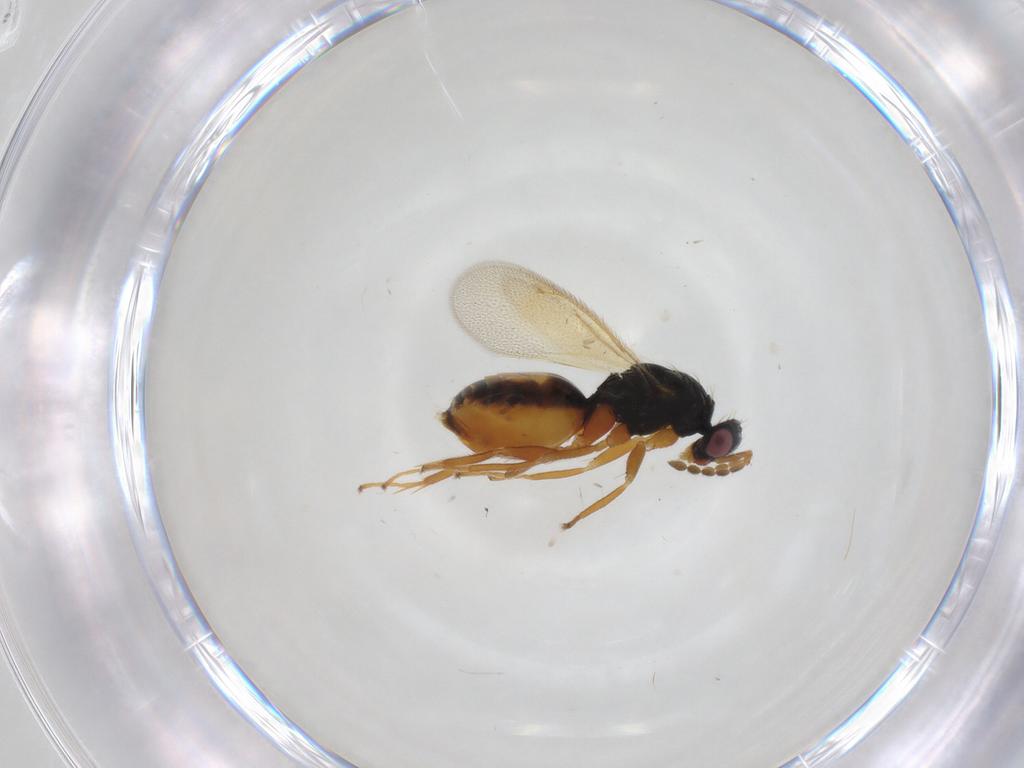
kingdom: Animalia
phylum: Arthropoda
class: Insecta
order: Hymenoptera
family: Eulophidae
